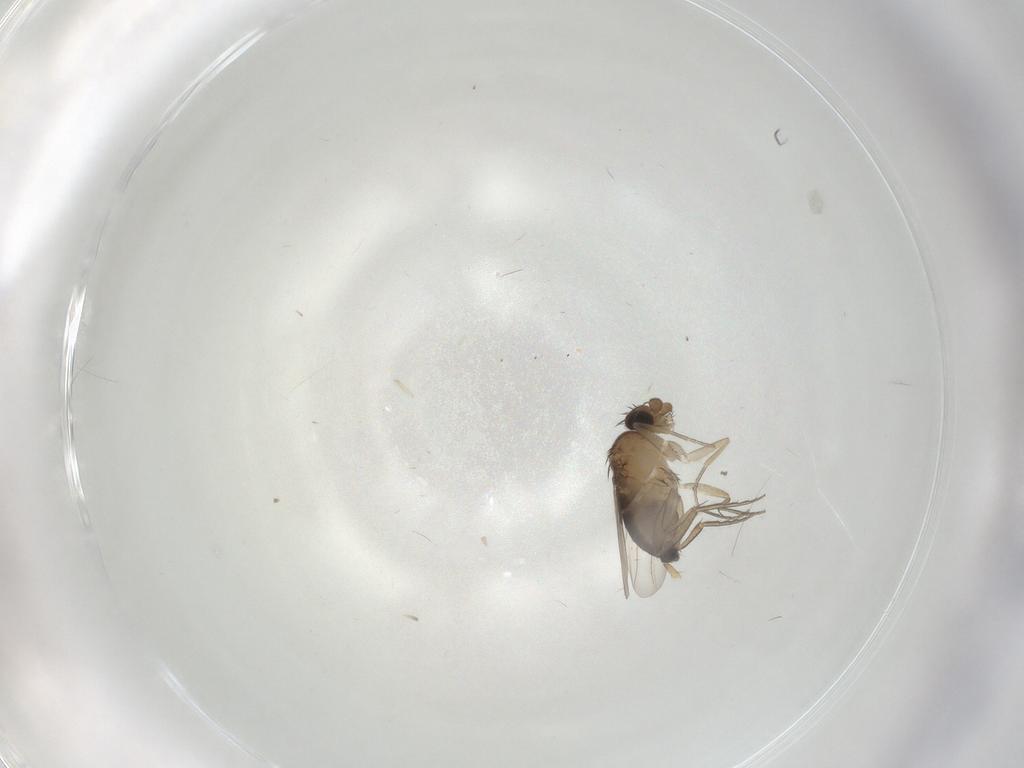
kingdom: Animalia
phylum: Arthropoda
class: Insecta
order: Diptera
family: Phoridae
